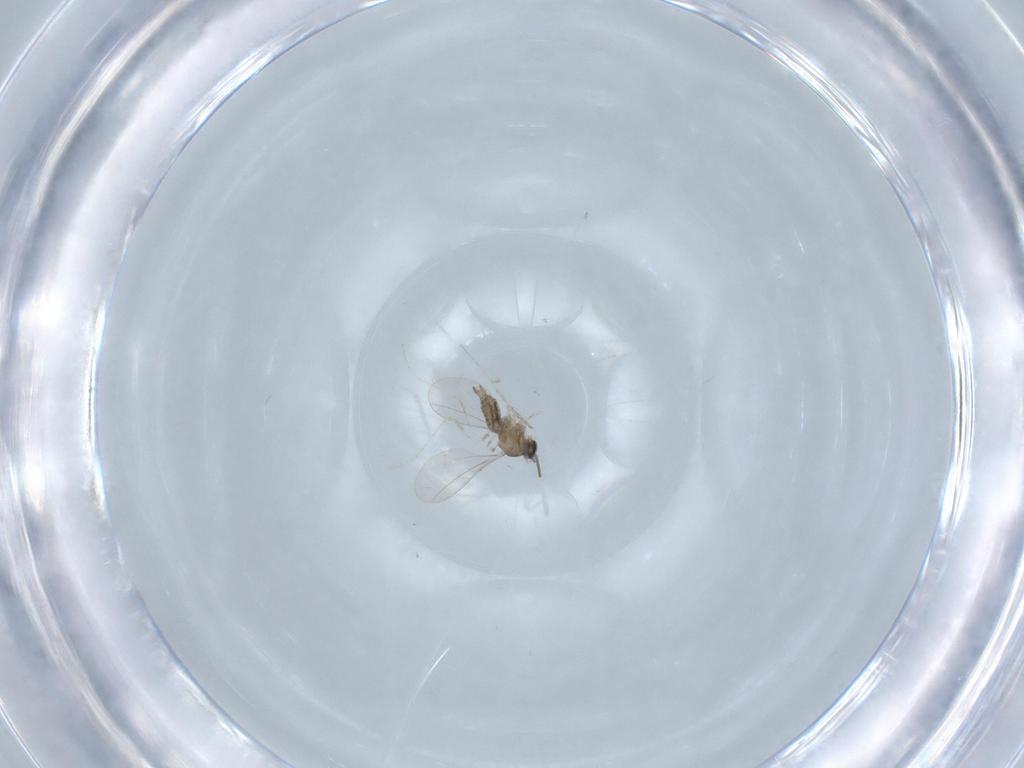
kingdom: Animalia
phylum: Arthropoda
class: Insecta
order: Diptera
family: Cecidomyiidae
